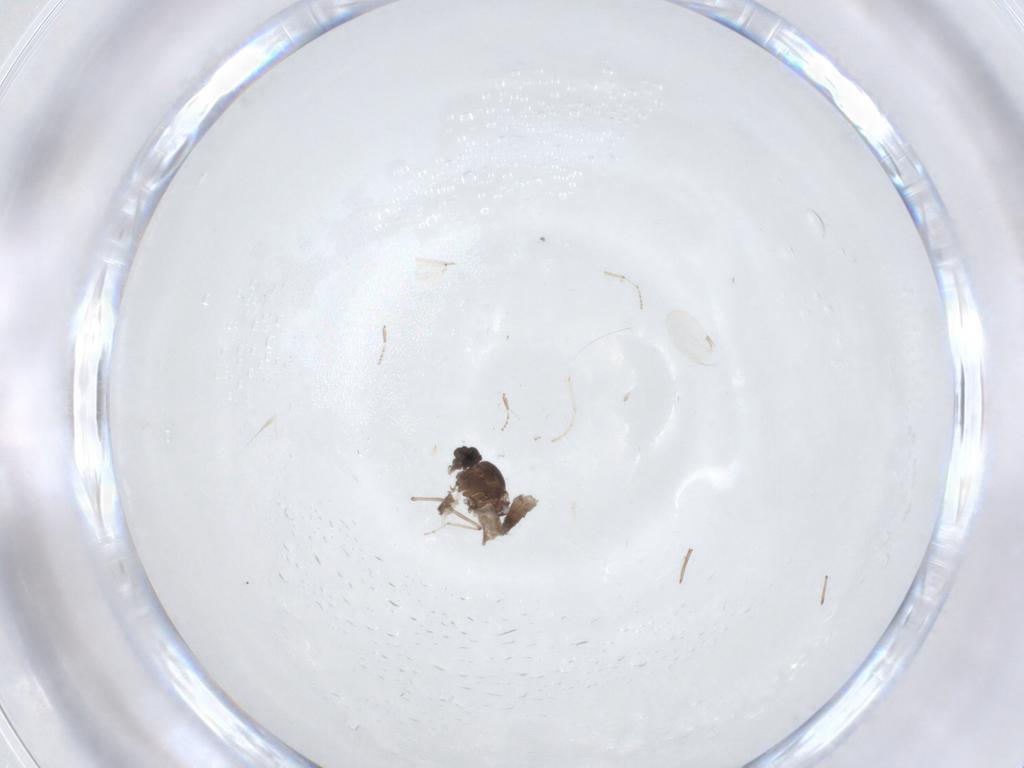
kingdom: Animalia
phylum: Arthropoda
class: Insecta
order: Diptera
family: Ceratopogonidae
